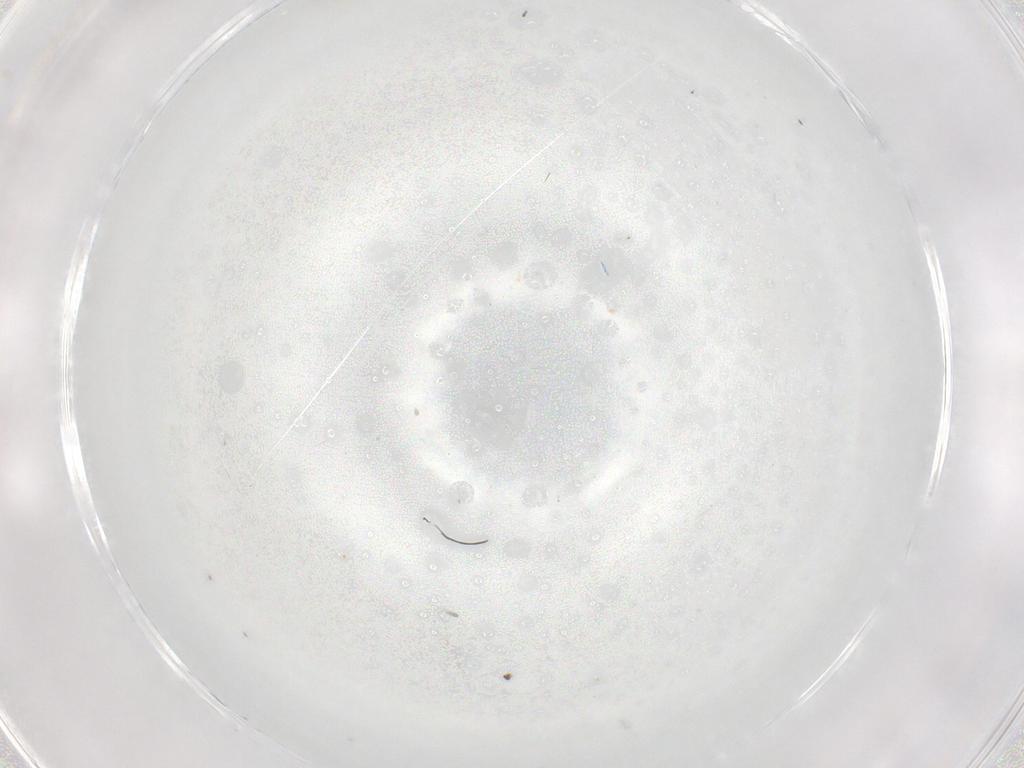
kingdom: Animalia
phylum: Arthropoda
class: Insecta
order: Diptera
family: Cecidomyiidae
